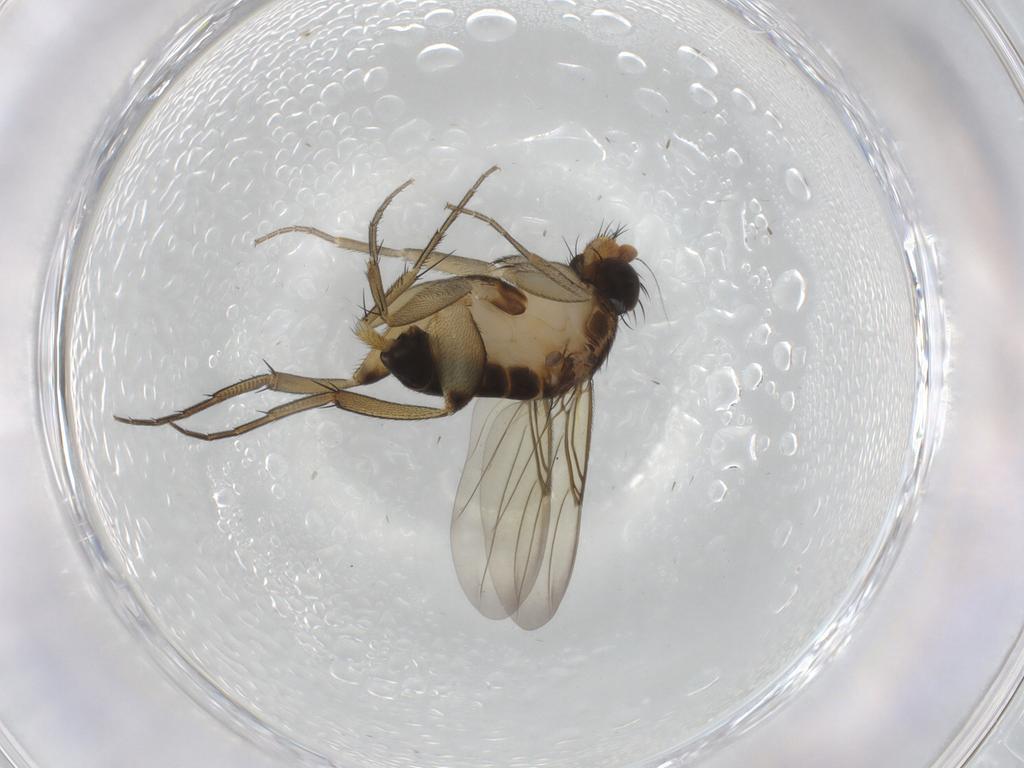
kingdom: Animalia
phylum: Arthropoda
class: Insecta
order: Diptera
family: Phoridae
